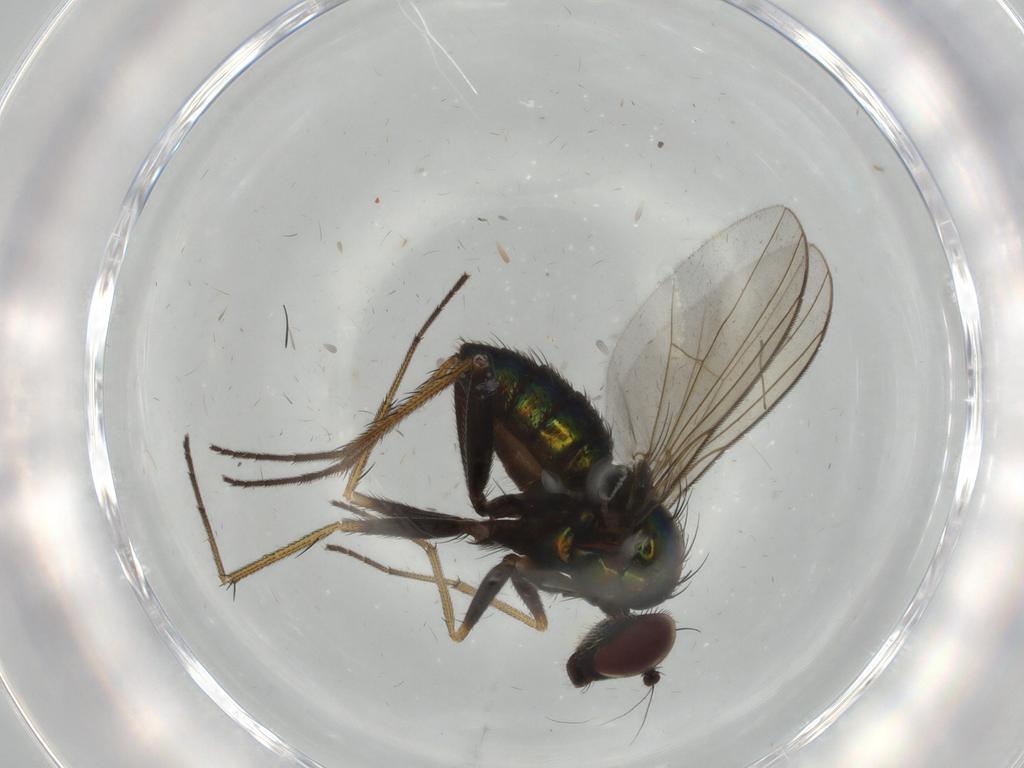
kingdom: Animalia
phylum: Arthropoda
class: Insecta
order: Diptera
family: Dolichopodidae
